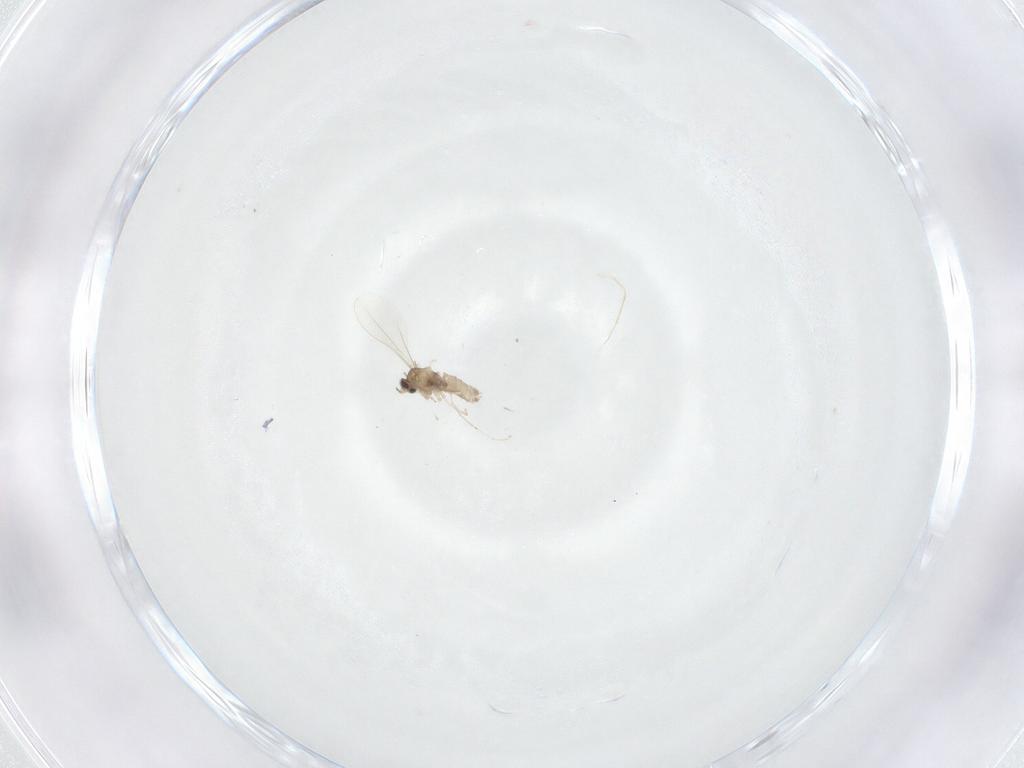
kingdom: Animalia
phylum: Arthropoda
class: Insecta
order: Diptera
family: Cecidomyiidae
